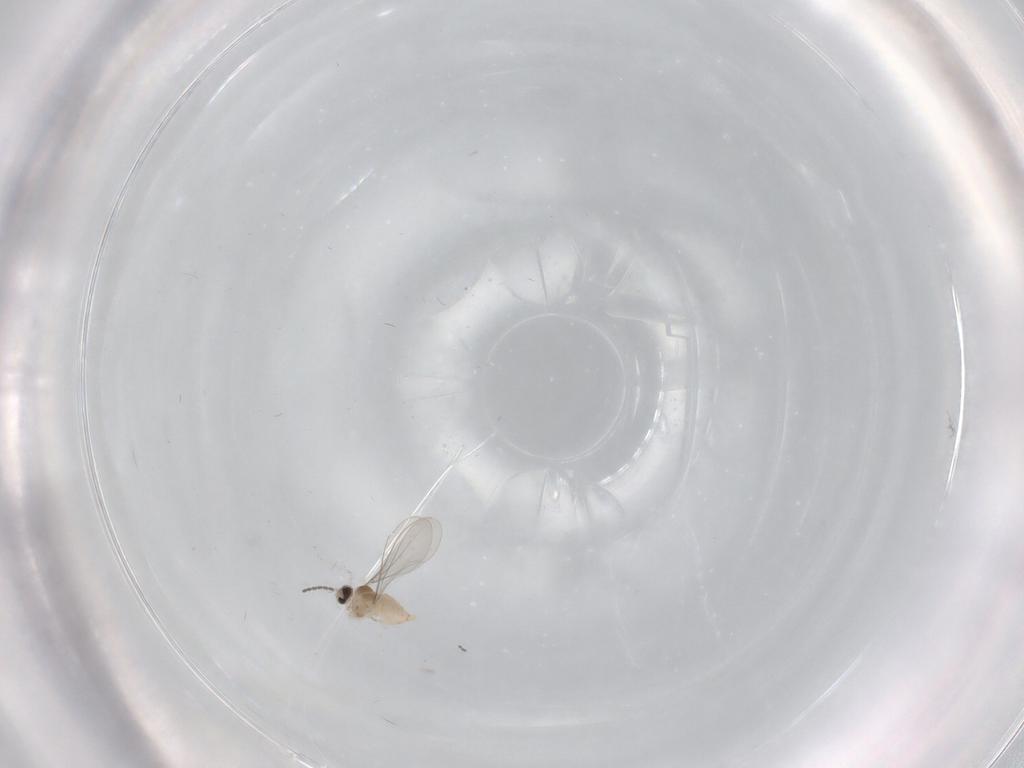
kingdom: Animalia
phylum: Arthropoda
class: Insecta
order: Diptera
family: Cecidomyiidae
